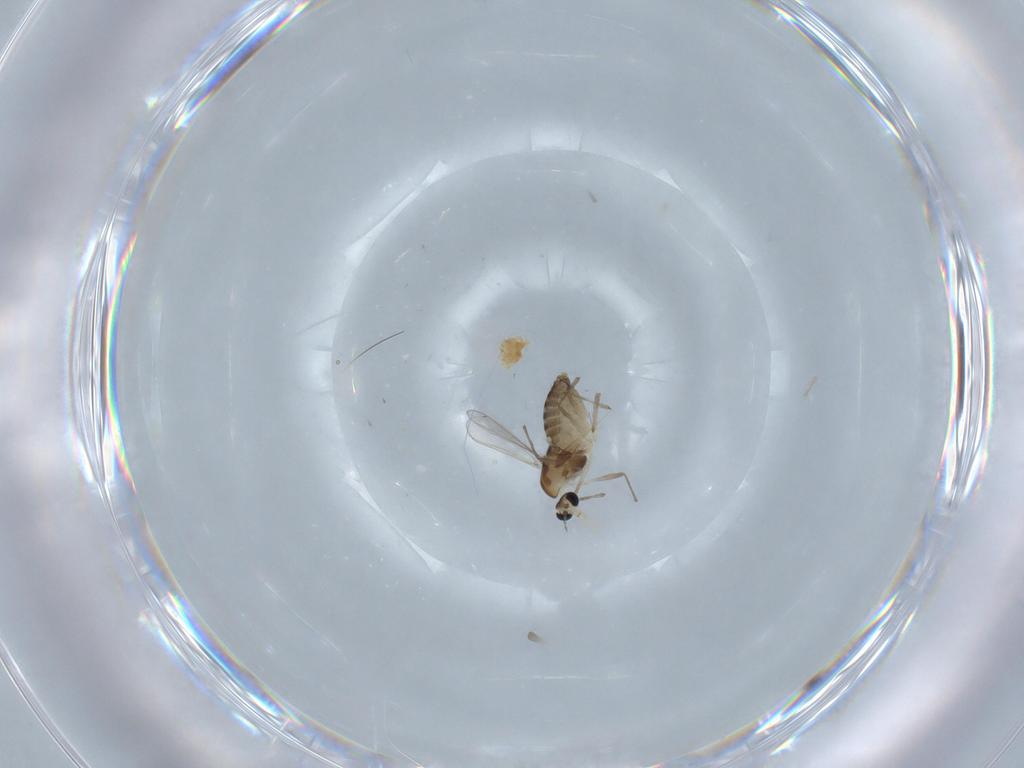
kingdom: Animalia
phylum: Arthropoda
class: Insecta
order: Diptera
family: Chironomidae
